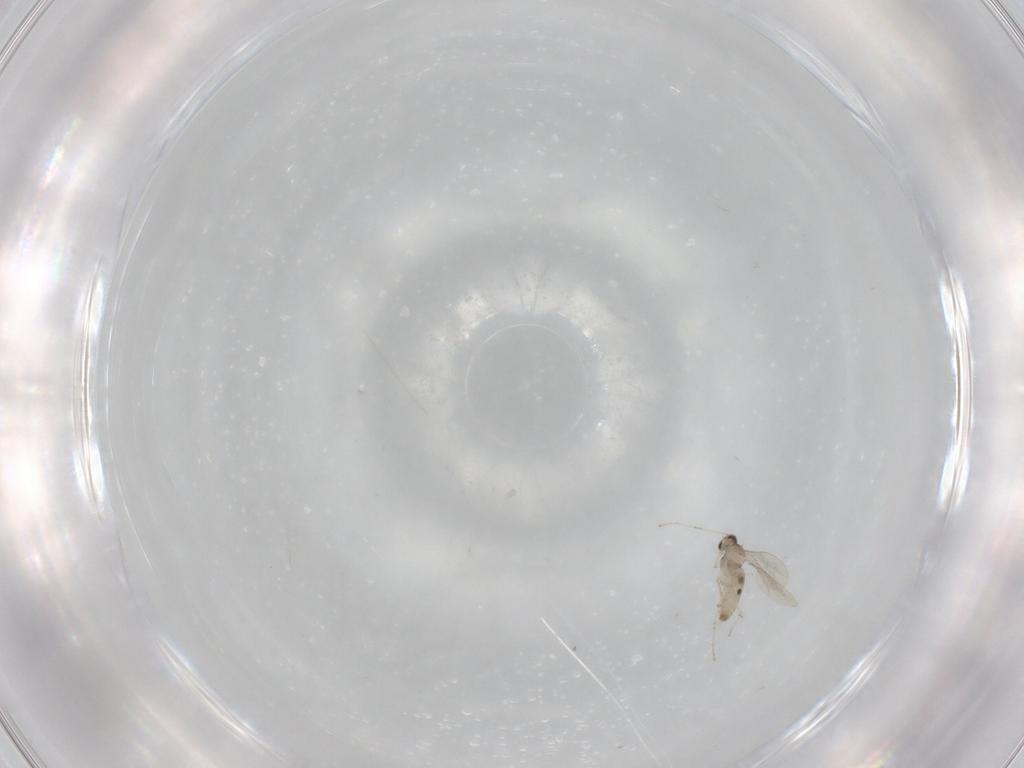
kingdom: Animalia
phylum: Arthropoda
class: Insecta
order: Diptera
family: Cecidomyiidae
